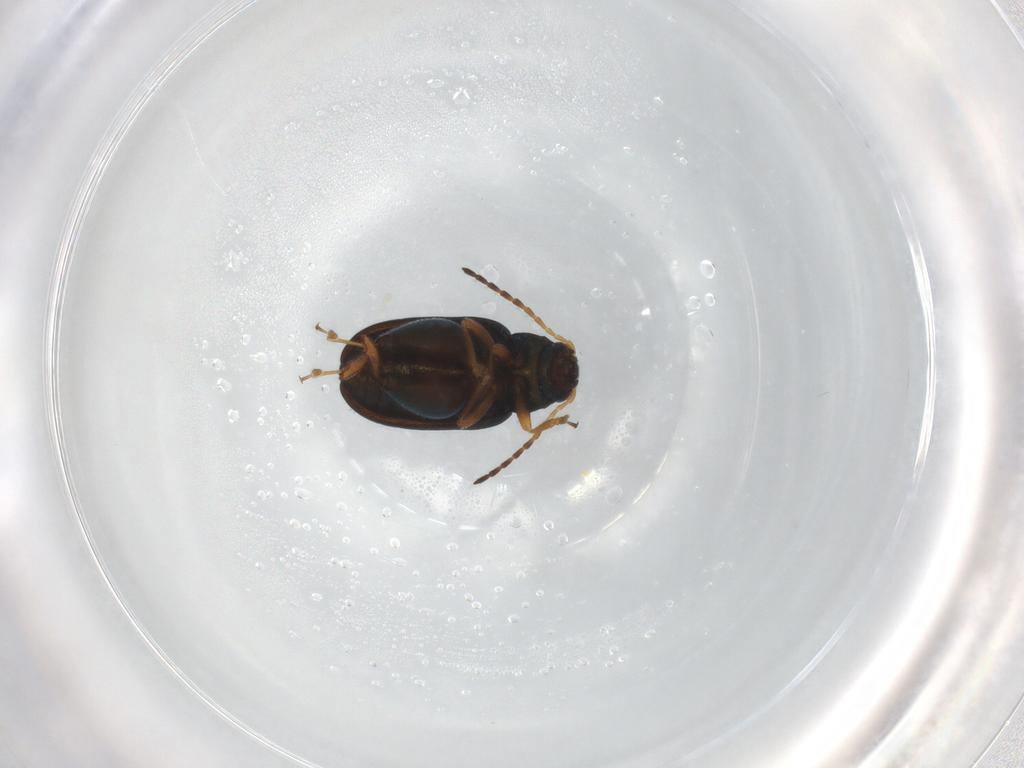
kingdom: Animalia
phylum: Arthropoda
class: Insecta
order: Coleoptera
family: Chrysomelidae
